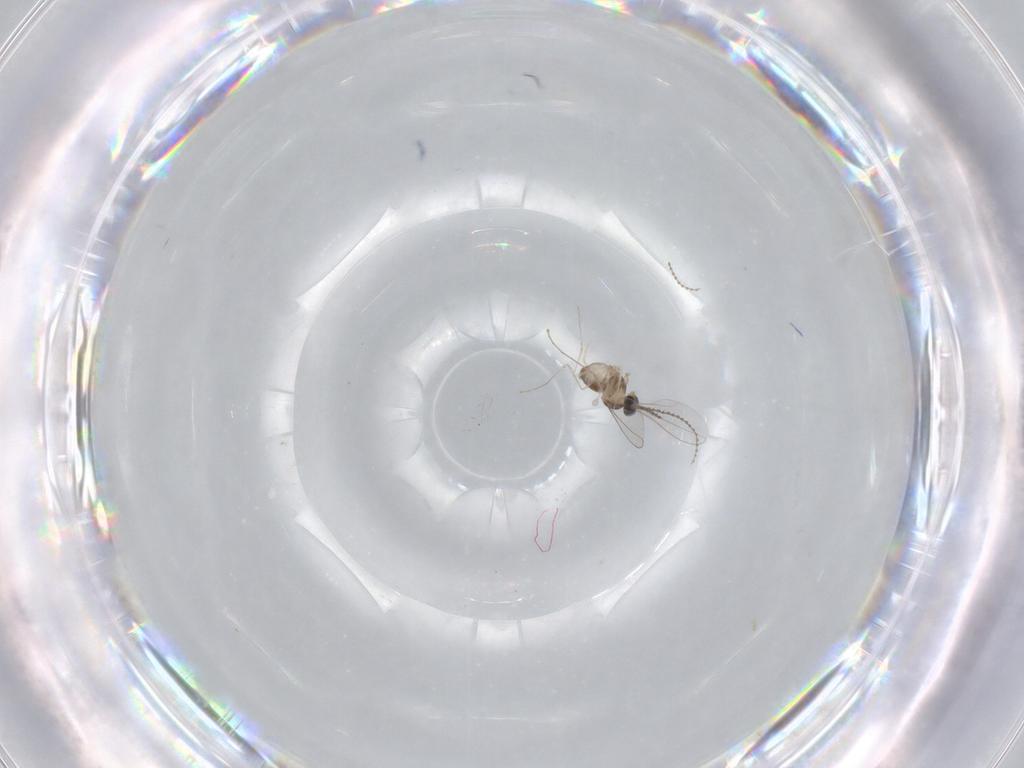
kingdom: Animalia
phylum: Arthropoda
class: Insecta
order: Diptera
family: Cecidomyiidae
